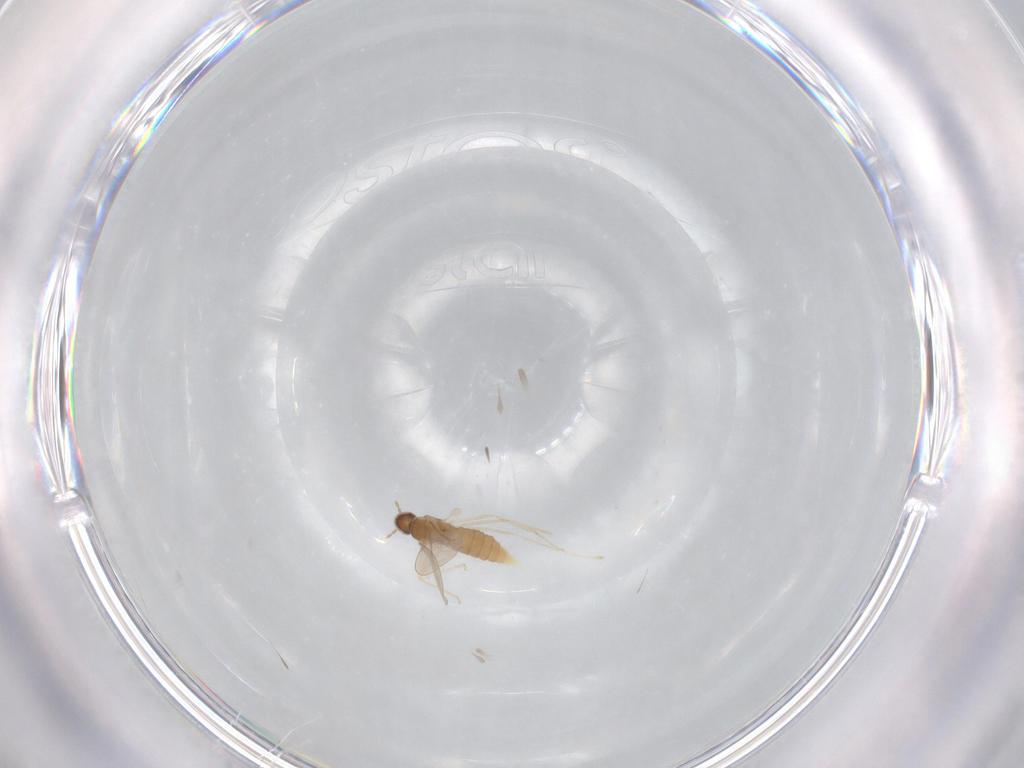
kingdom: Animalia
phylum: Arthropoda
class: Insecta
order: Diptera
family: Cecidomyiidae
